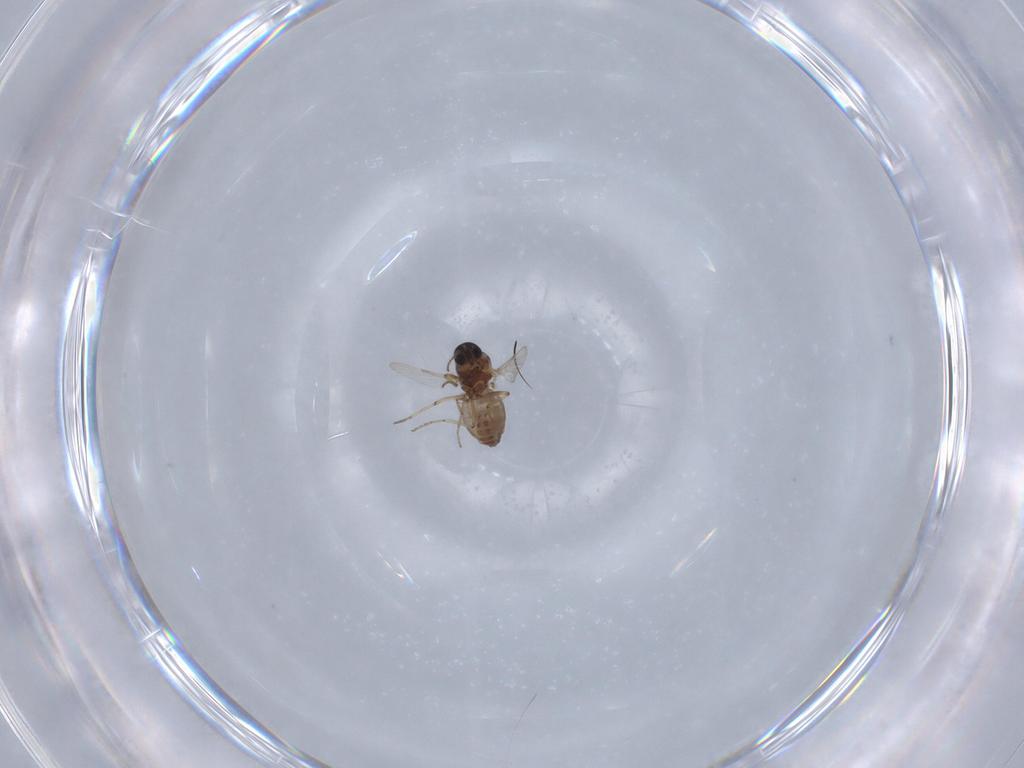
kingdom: Animalia
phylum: Arthropoda
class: Insecta
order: Diptera
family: Ceratopogonidae
